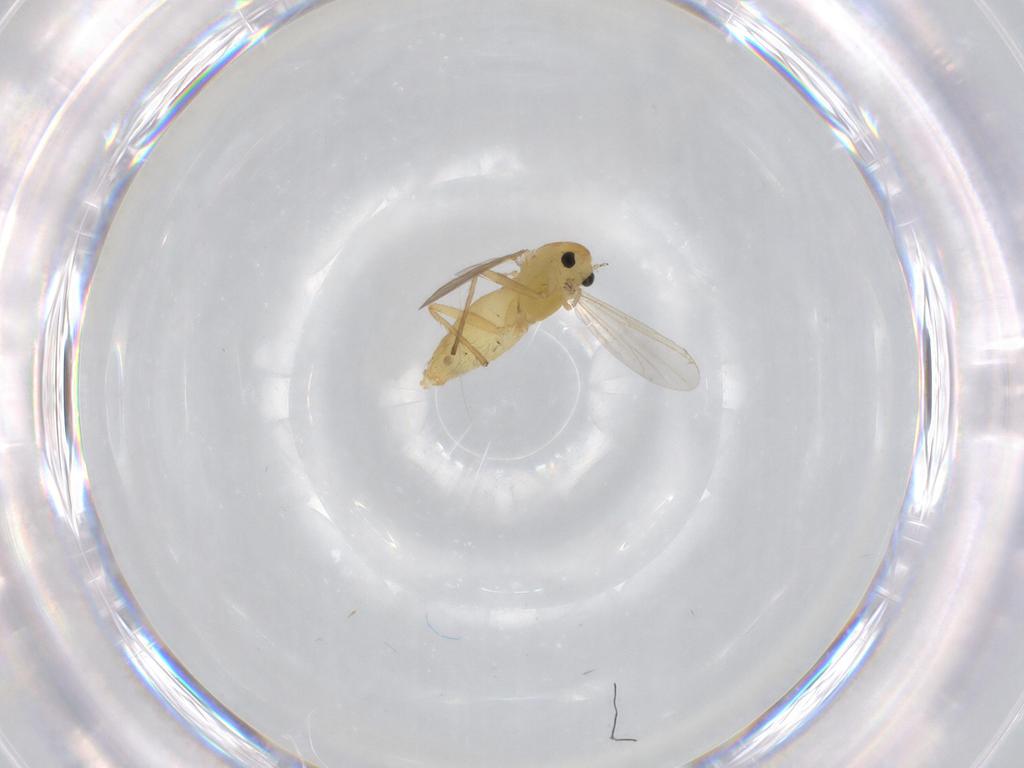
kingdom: Animalia
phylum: Arthropoda
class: Insecta
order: Diptera
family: Chironomidae
